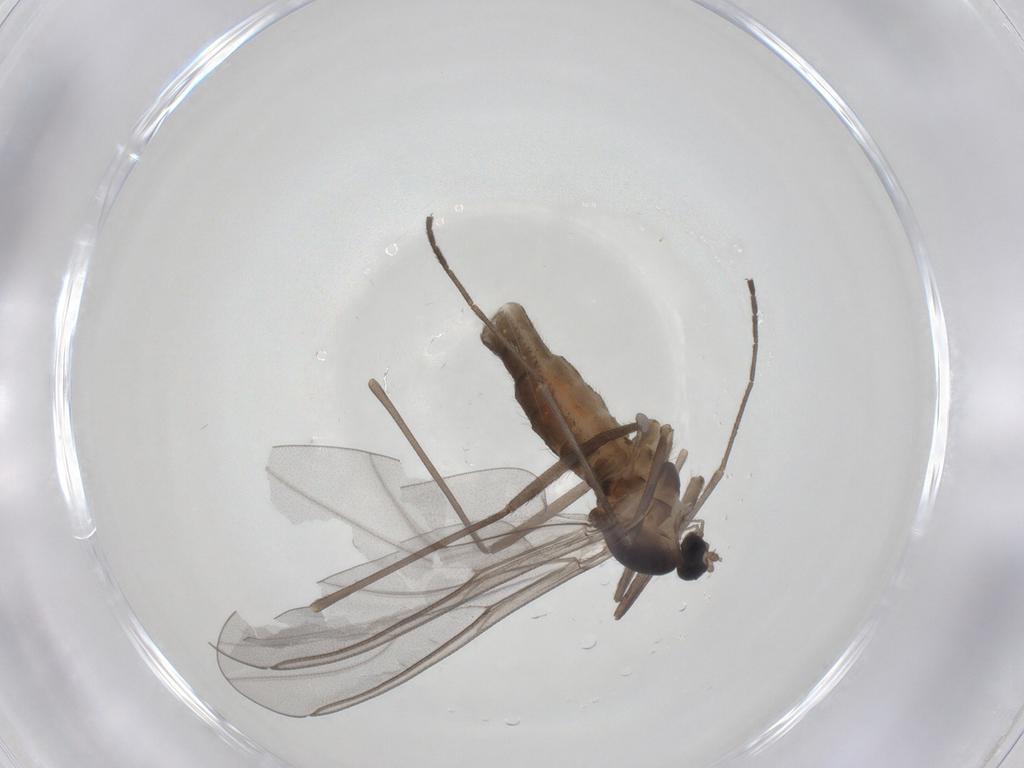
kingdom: Animalia
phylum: Arthropoda
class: Insecta
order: Diptera
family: Cecidomyiidae
